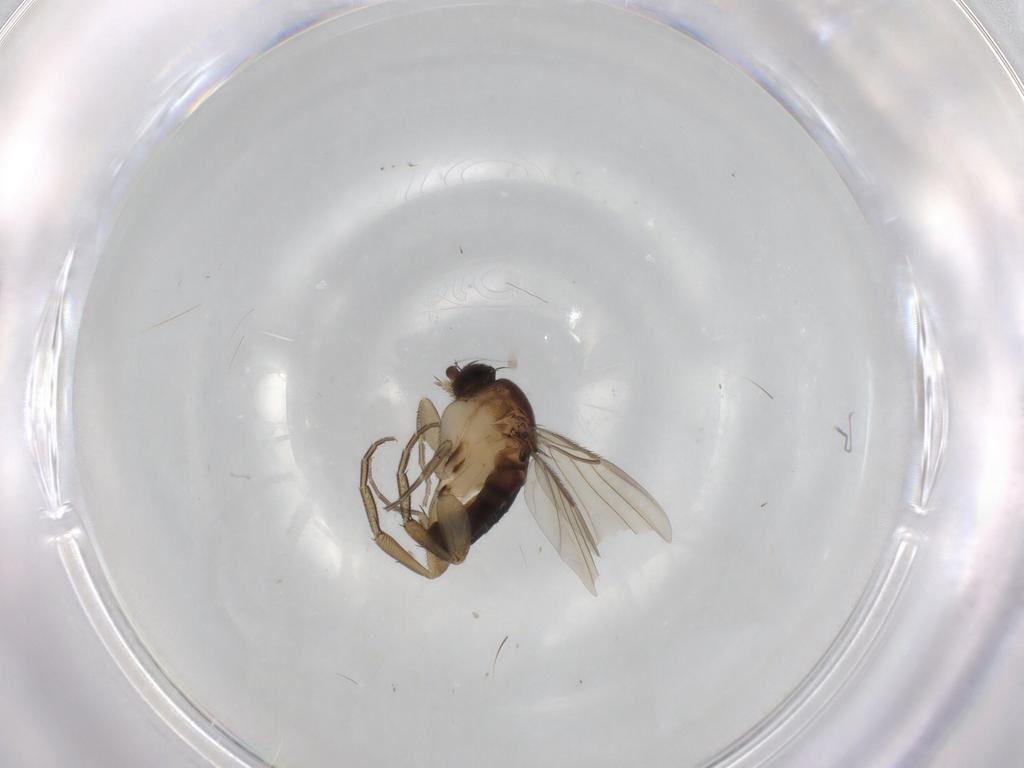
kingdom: Animalia
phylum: Arthropoda
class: Insecta
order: Diptera
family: Phoridae
